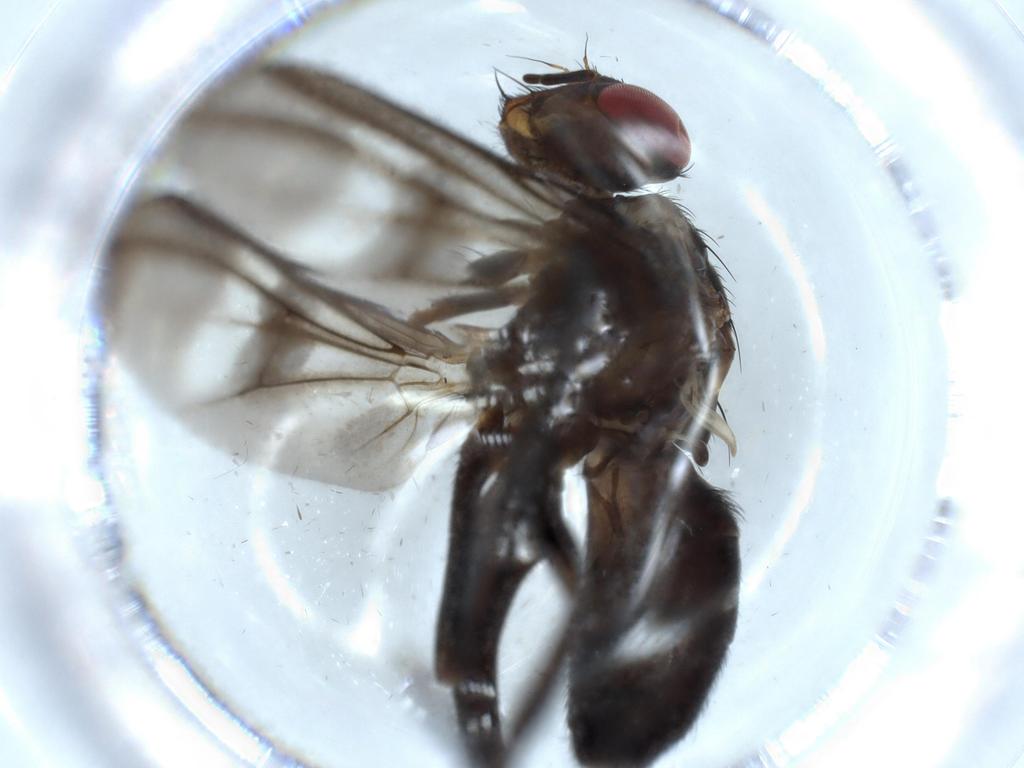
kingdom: Animalia
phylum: Arthropoda
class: Insecta
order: Diptera
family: Calliphoridae
